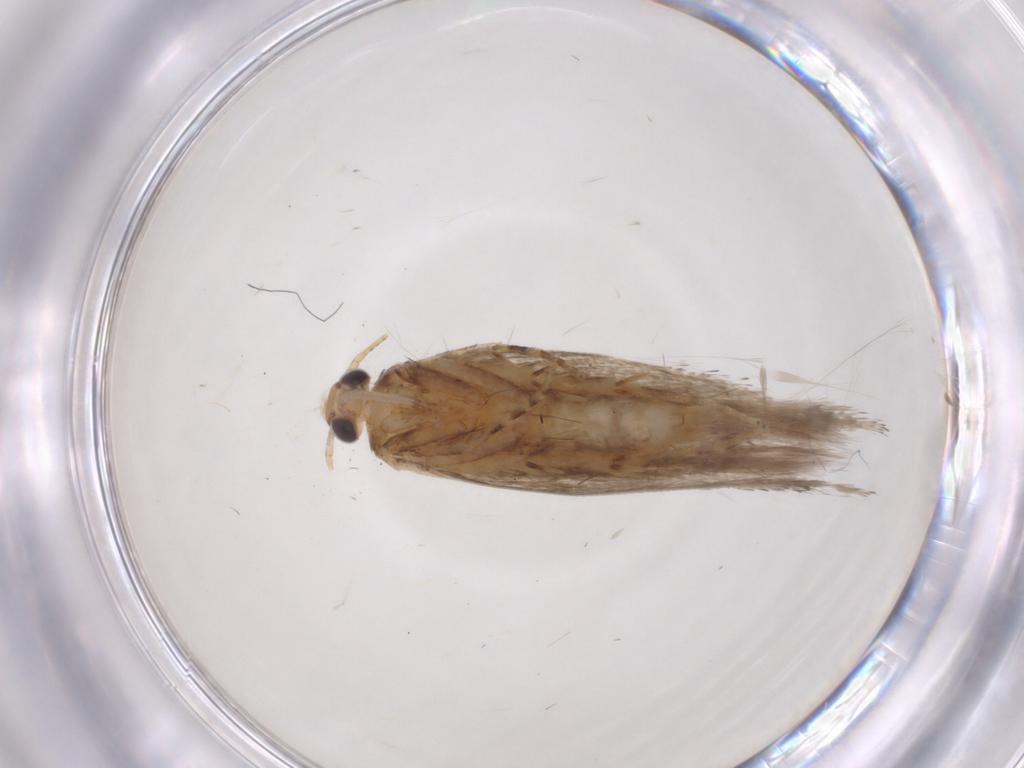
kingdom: Animalia
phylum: Arthropoda
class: Insecta
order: Lepidoptera
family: Gelechiidae
